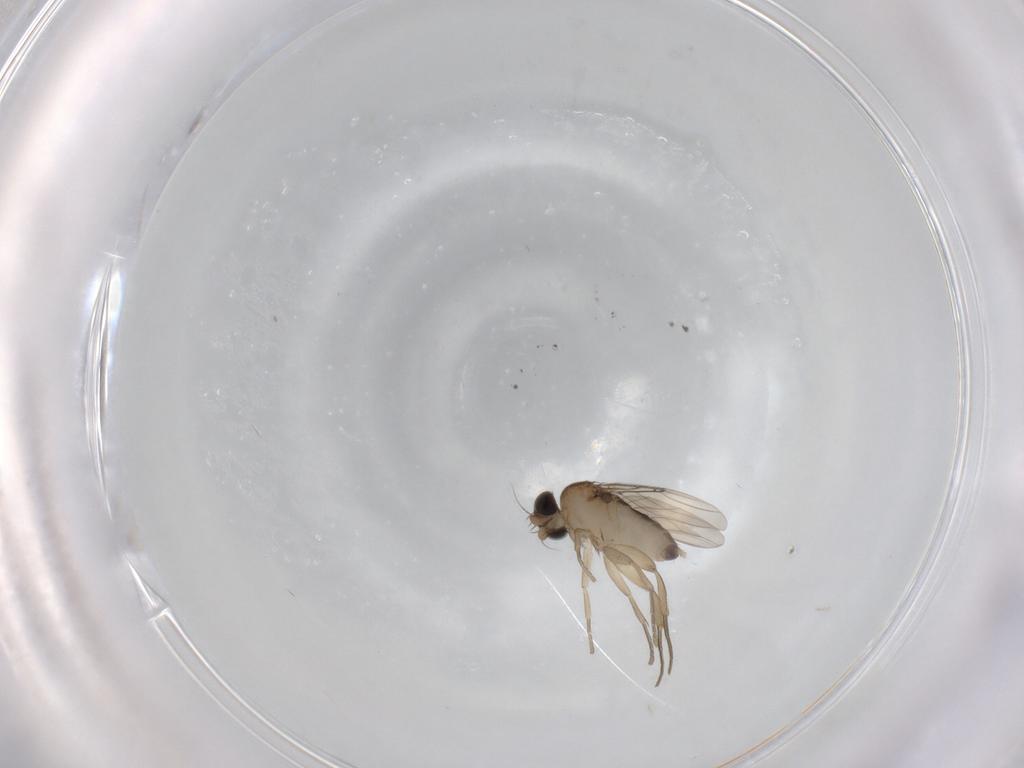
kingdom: Animalia
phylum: Arthropoda
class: Insecta
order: Diptera
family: Phoridae
